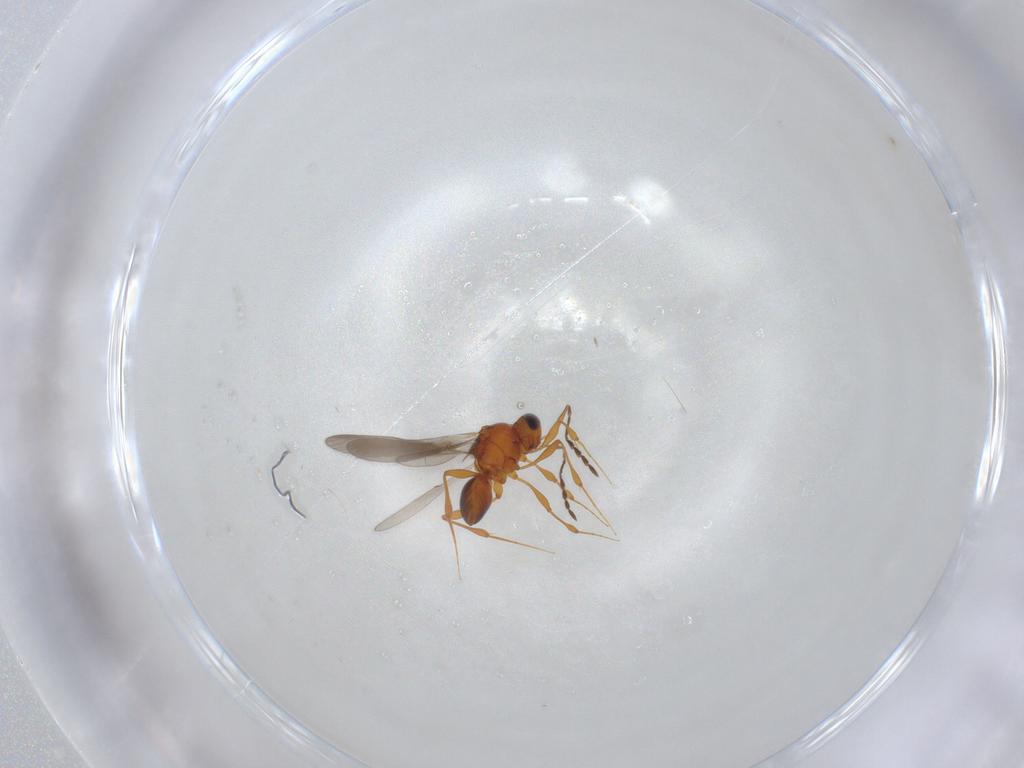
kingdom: Animalia
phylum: Arthropoda
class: Insecta
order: Hymenoptera
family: Platygastridae
